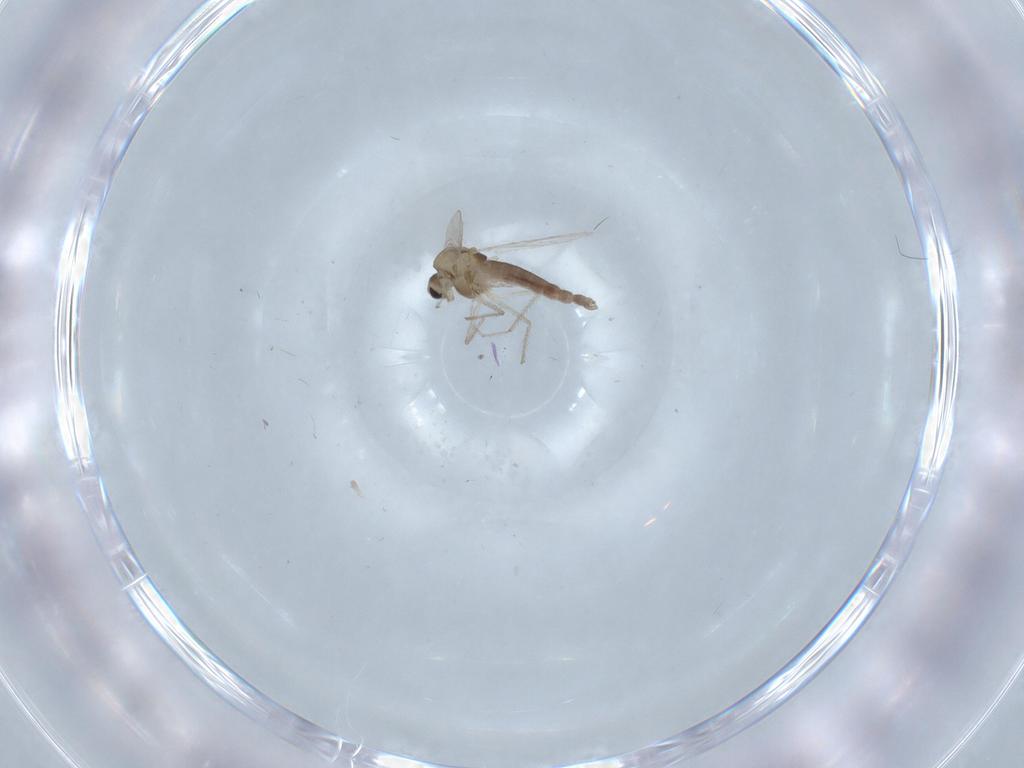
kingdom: Animalia
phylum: Arthropoda
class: Insecta
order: Diptera
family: Chironomidae
